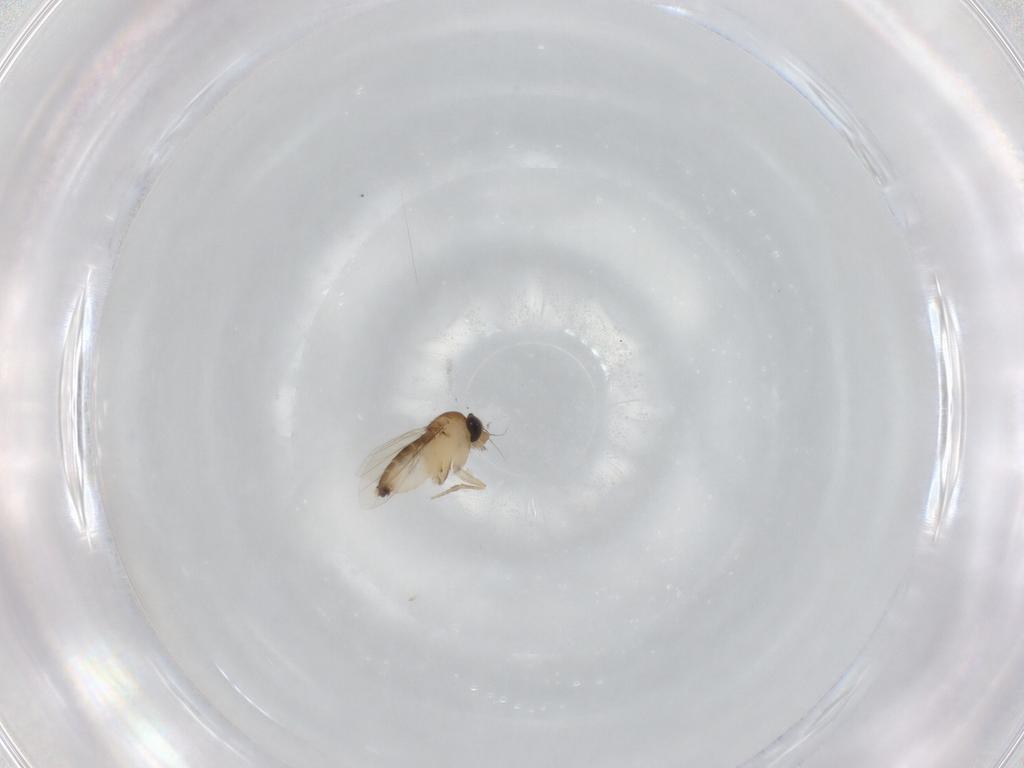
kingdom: Animalia
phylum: Arthropoda
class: Insecta
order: Diptera
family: Phoridae
